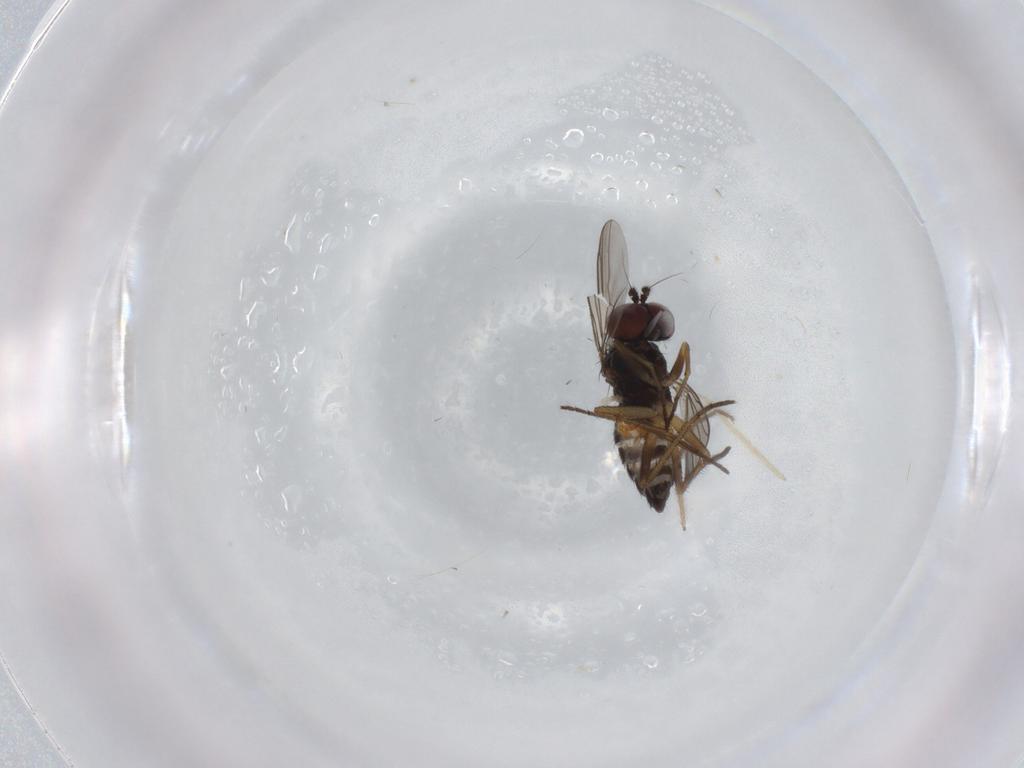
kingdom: Animalia
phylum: Arthropoda
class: Insecta
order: Diptera
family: Dolichopodidae
